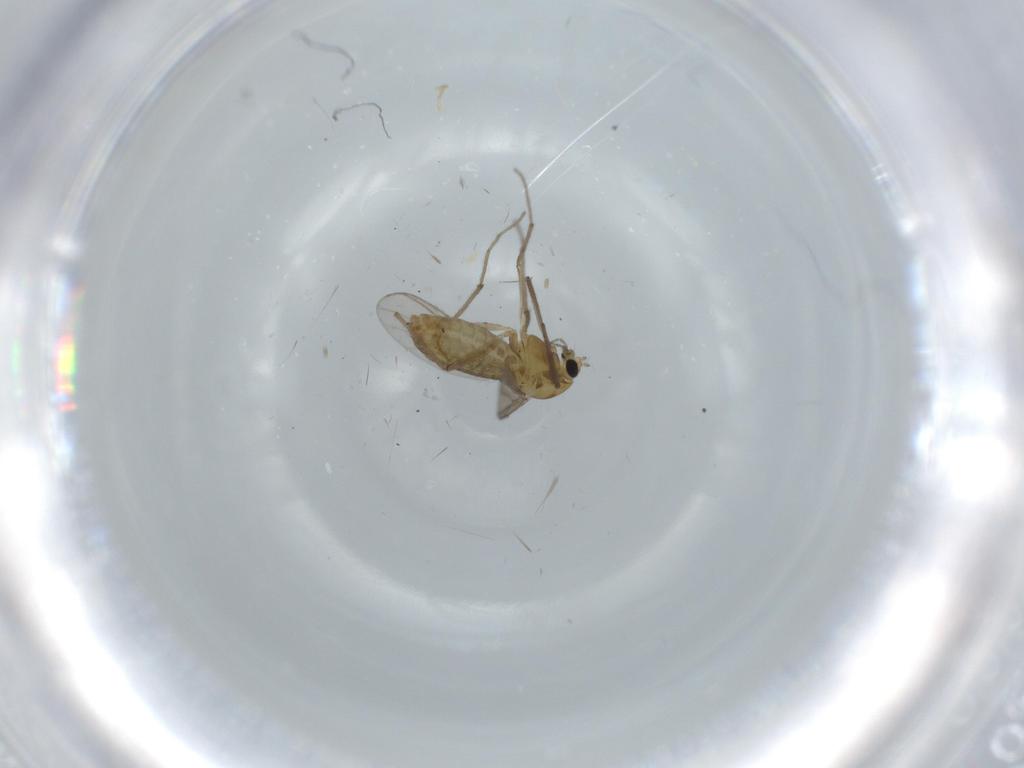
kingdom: Animalia
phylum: Arthropoda
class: Insecta
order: Diptera
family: Chironomidae
